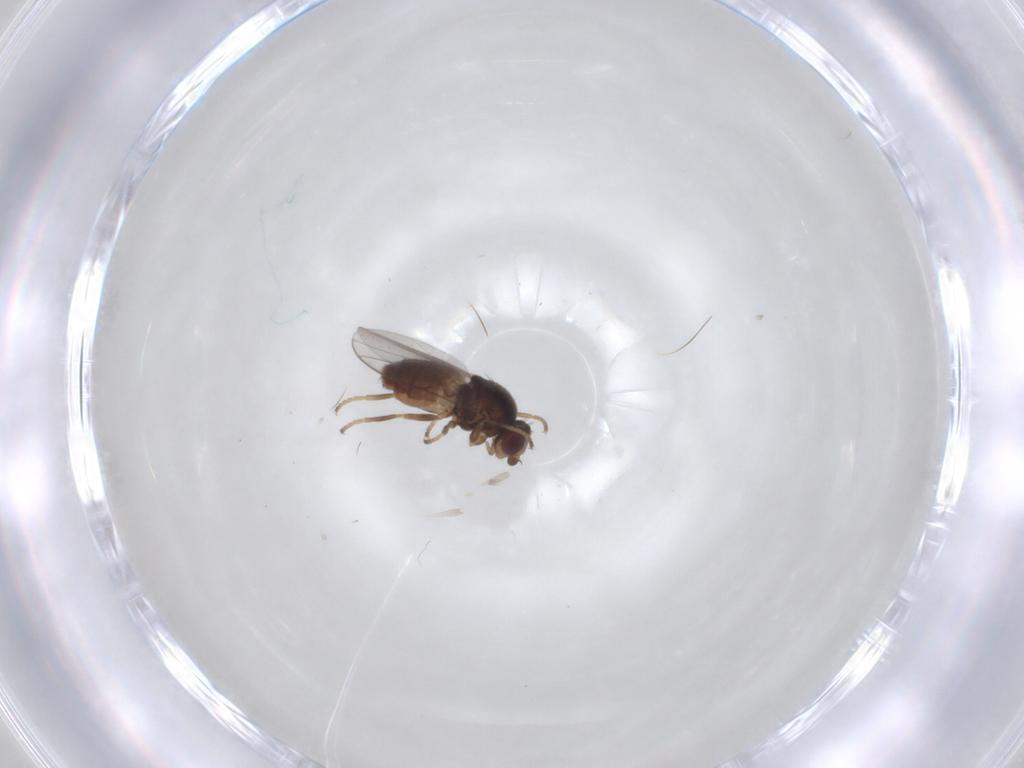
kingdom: Animalia
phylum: Arthropoda
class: Insecta
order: Diptera
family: Chloropidae
